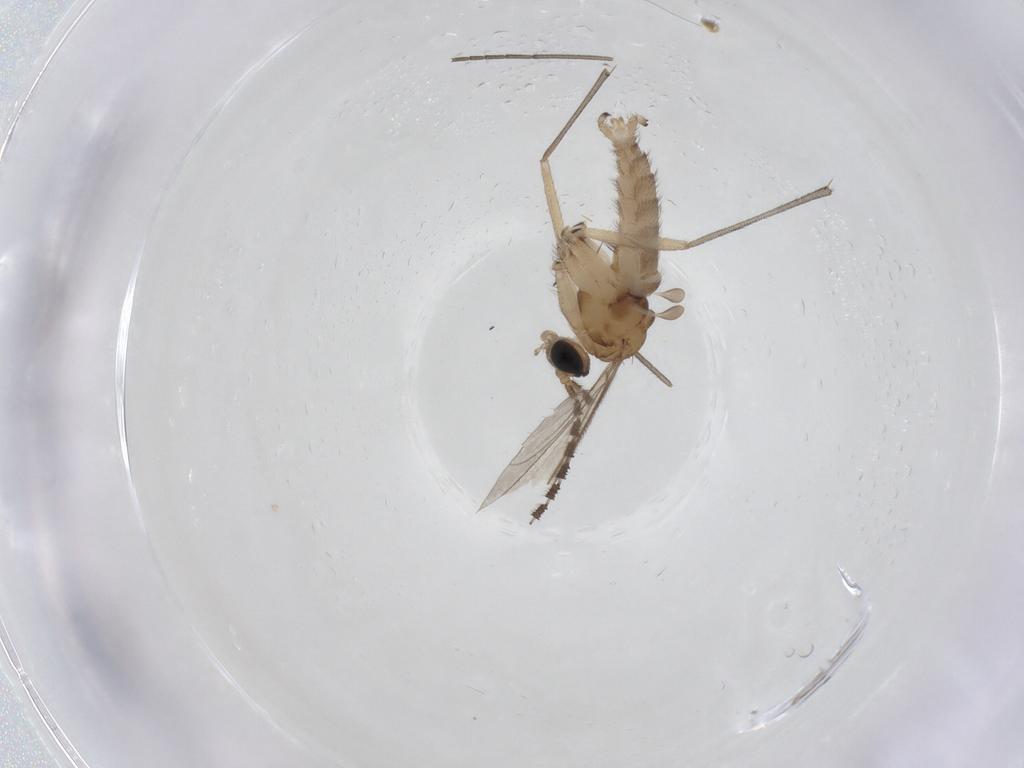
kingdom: Animalia
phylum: Arthropoda
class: Insecta
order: Diptera
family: Sciaridae
